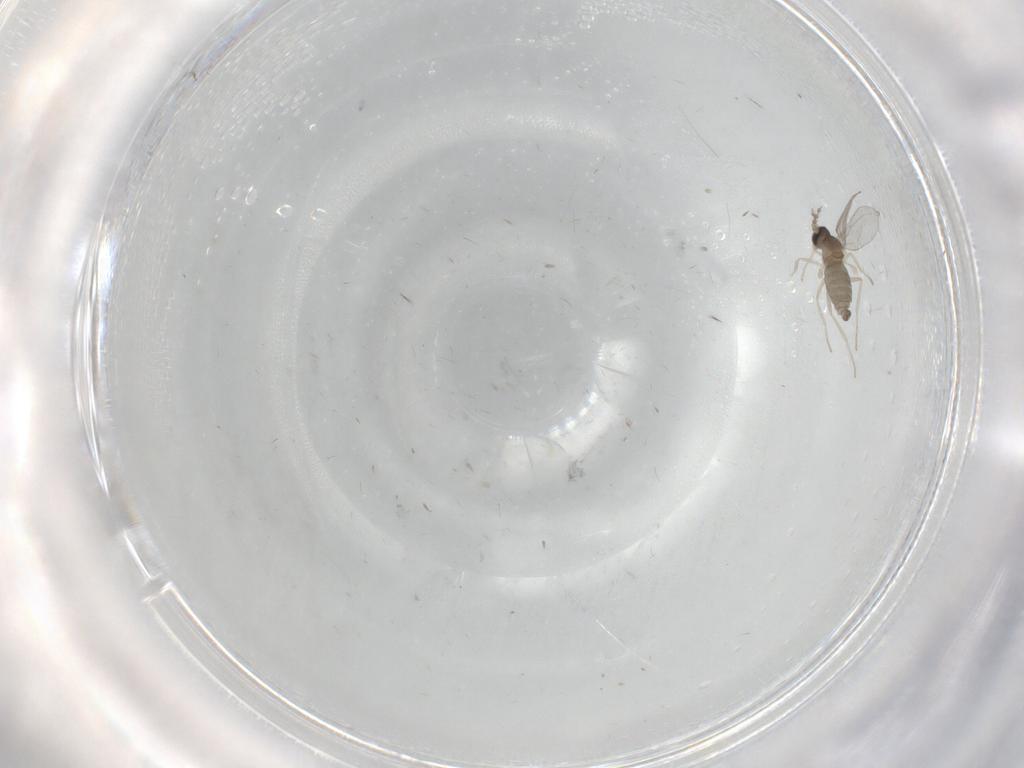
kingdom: Animalia
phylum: Arthropoda
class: Insecta
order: Diptera
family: Cecidomyiidae
